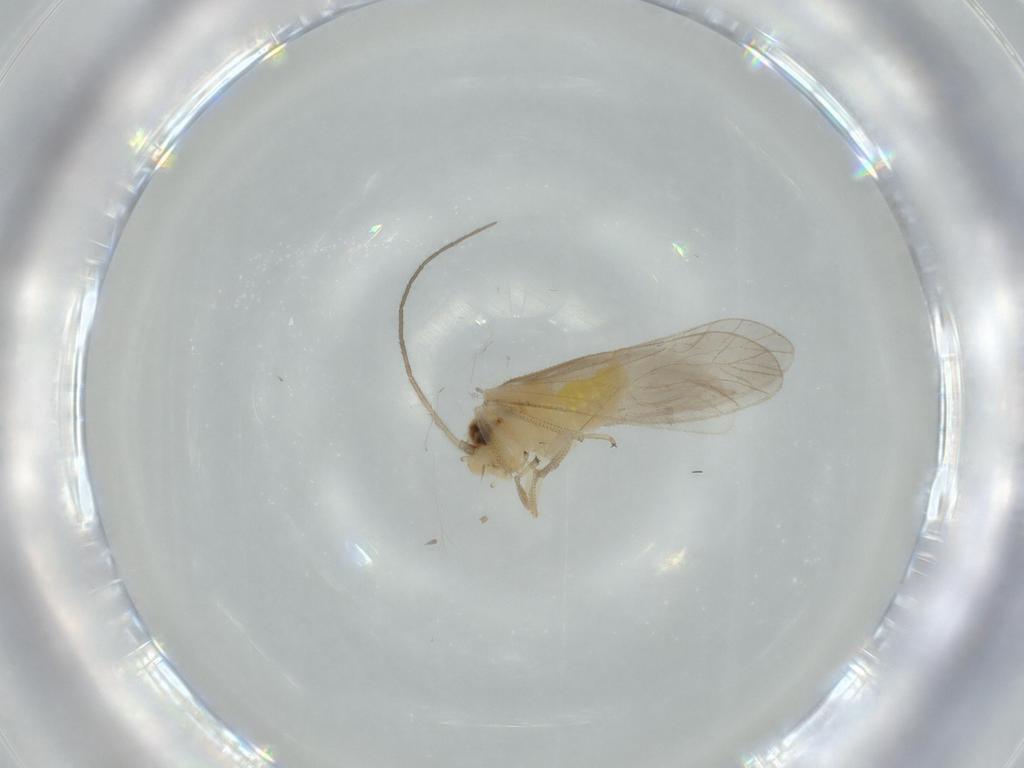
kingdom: Animalia
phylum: Arthropoda
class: Insecta
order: Psocodea
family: Caeciliusidae
